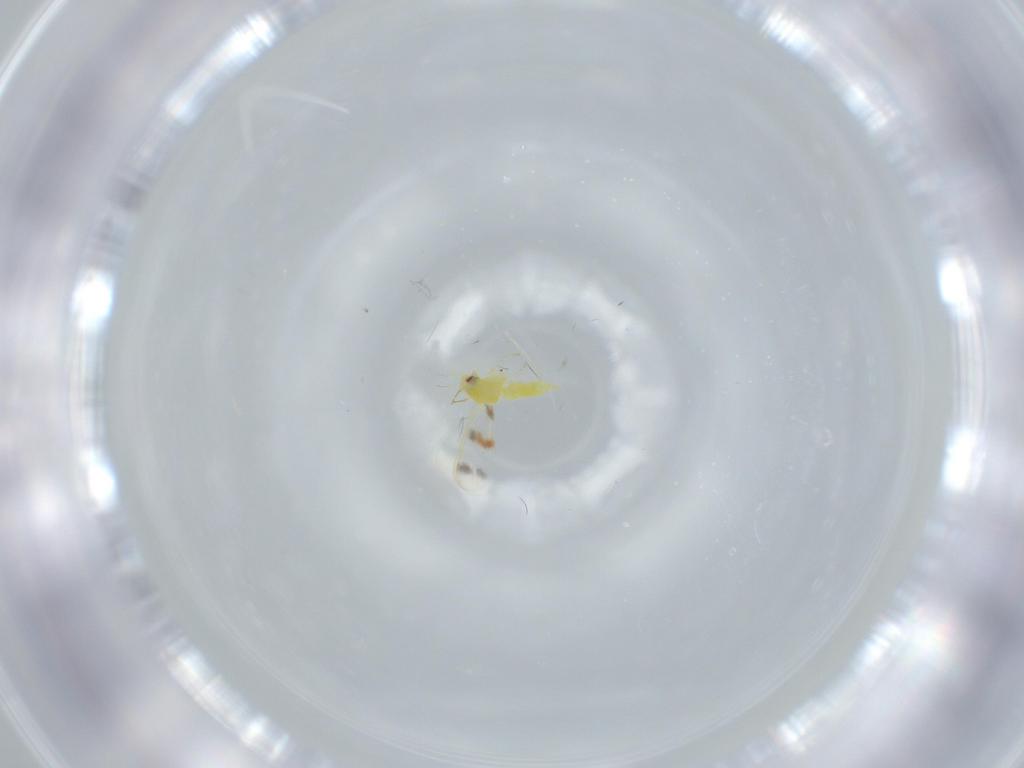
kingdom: Animalia
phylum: Arthropoda
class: Insecta
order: Hemiptera
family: Aleyrodidae
